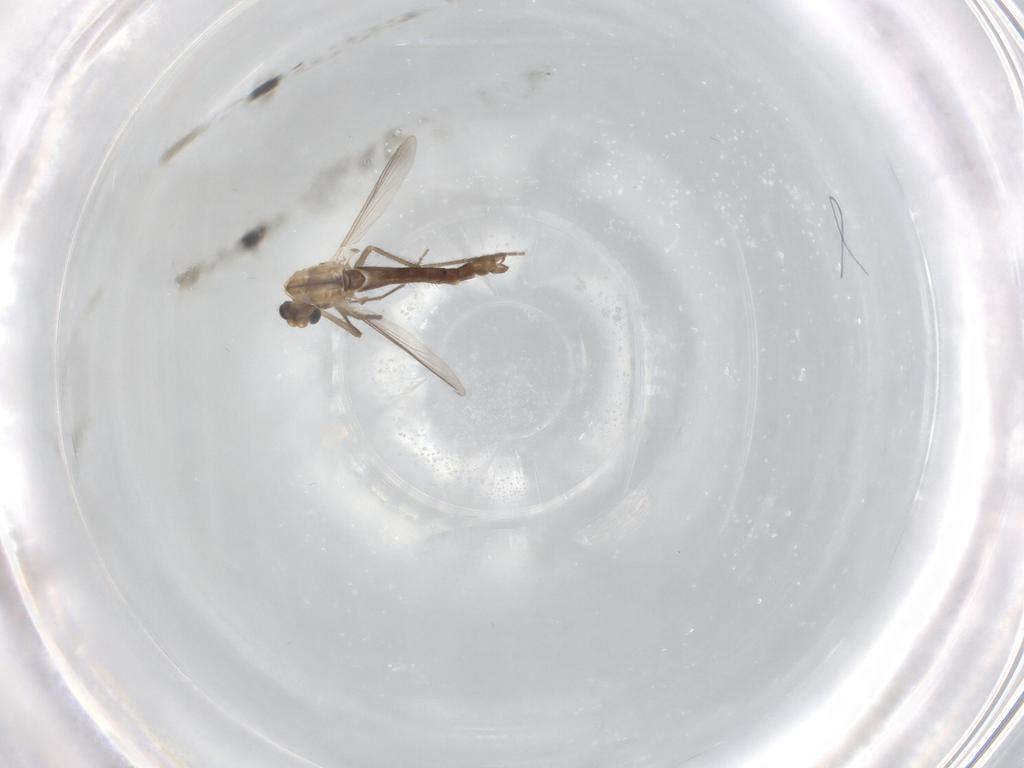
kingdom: Animalia
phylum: Arthropoda
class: Insecta
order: Diptera
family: Chironomidae
